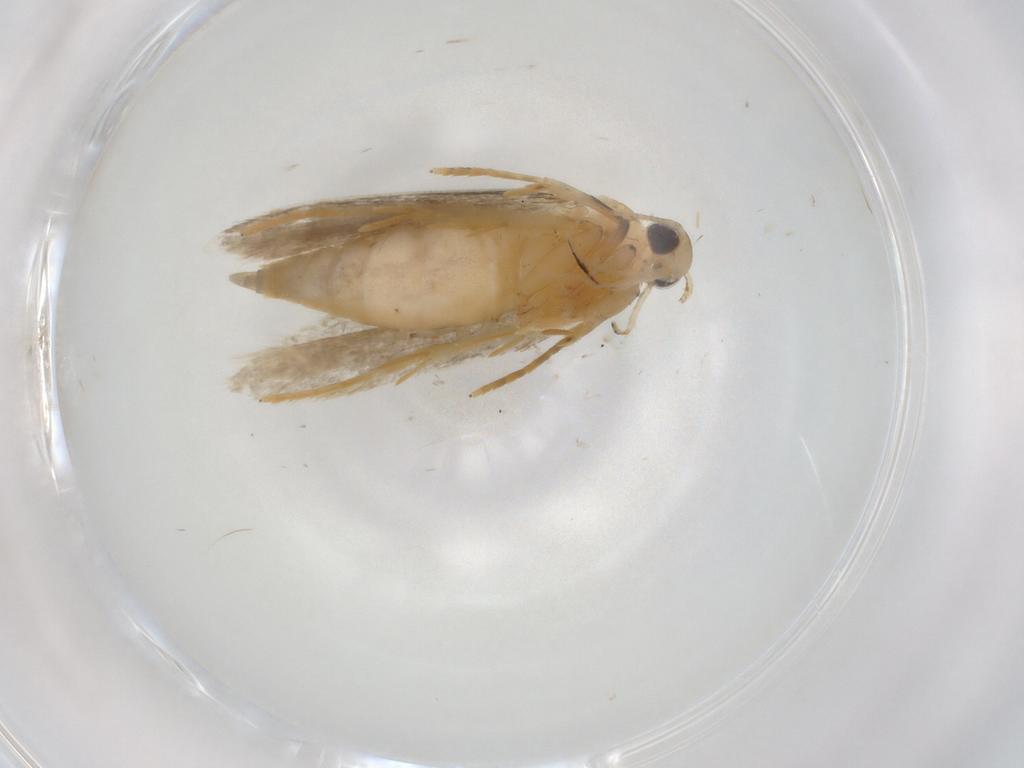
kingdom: Animalia
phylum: Arthropoda
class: Insecta
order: Lepidoptera
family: Autostichidae
